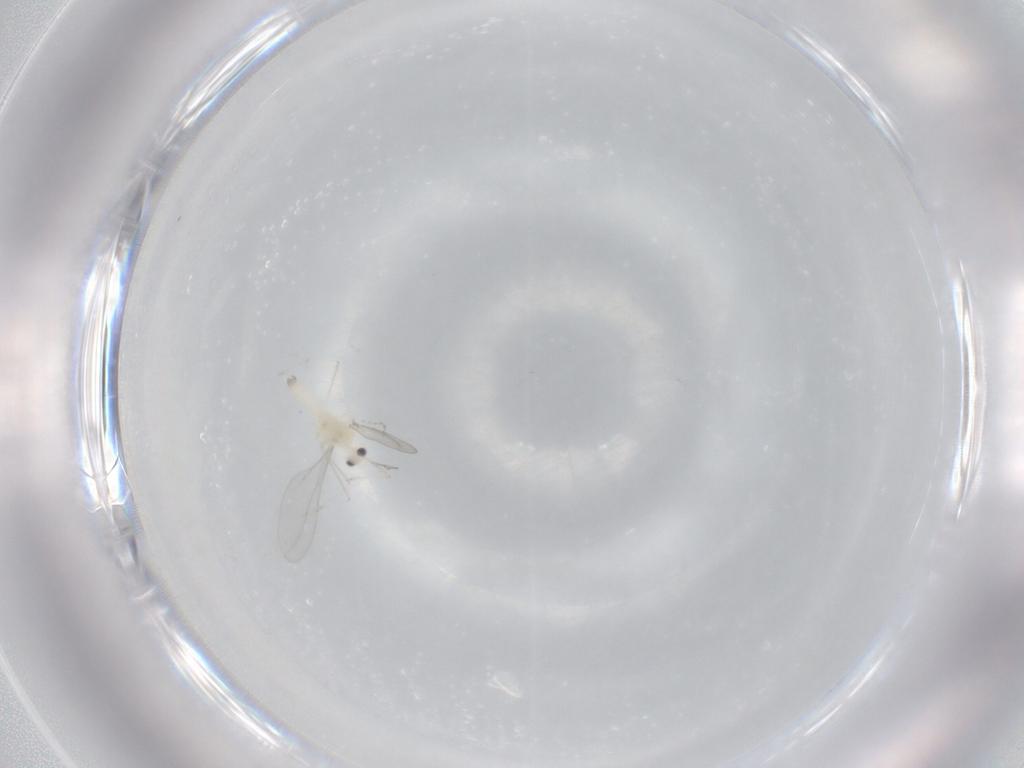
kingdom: Animalia
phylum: Arthropoda
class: Insecta
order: Diptera
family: Cecidomyiidae
